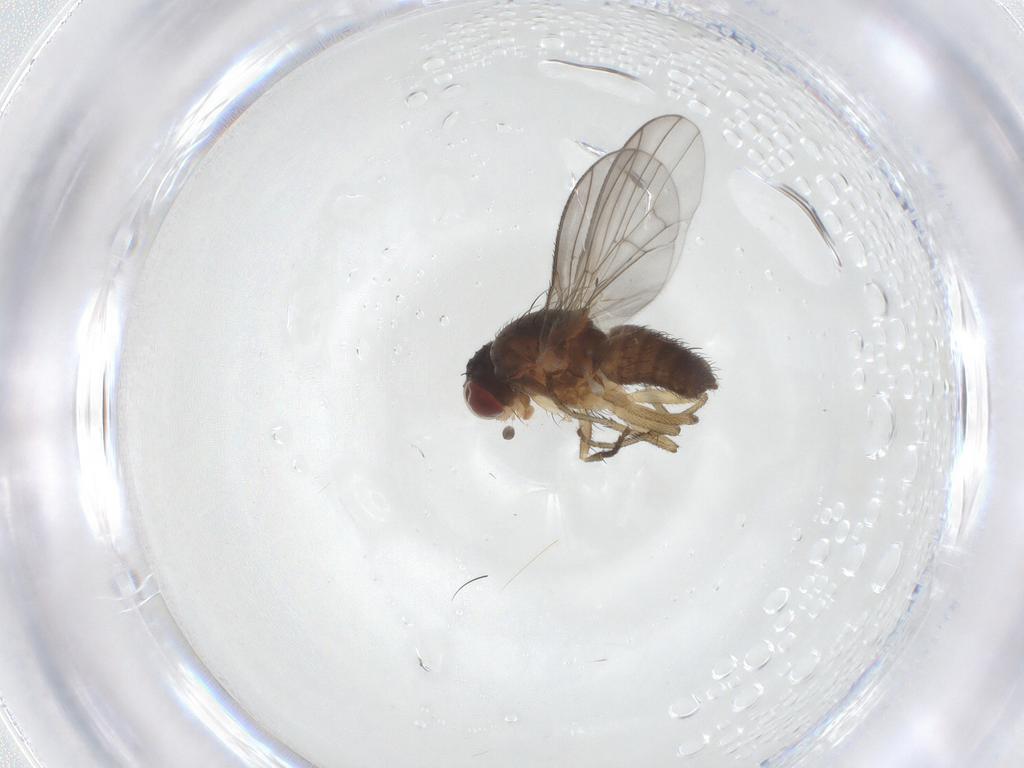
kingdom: Animalia
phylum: Arthropoda
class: Insecta
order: Diptera
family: Heleomyzidae
